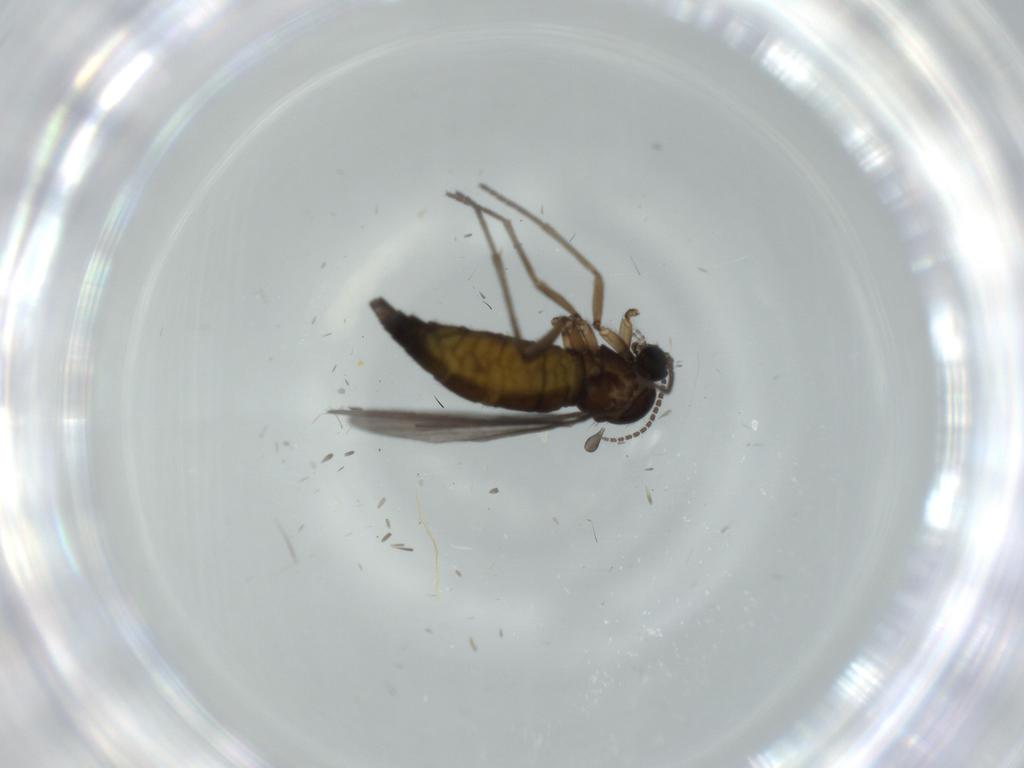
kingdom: Animalia
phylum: Arthropoda
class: Insecta
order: Diptera
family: Sciaridae
